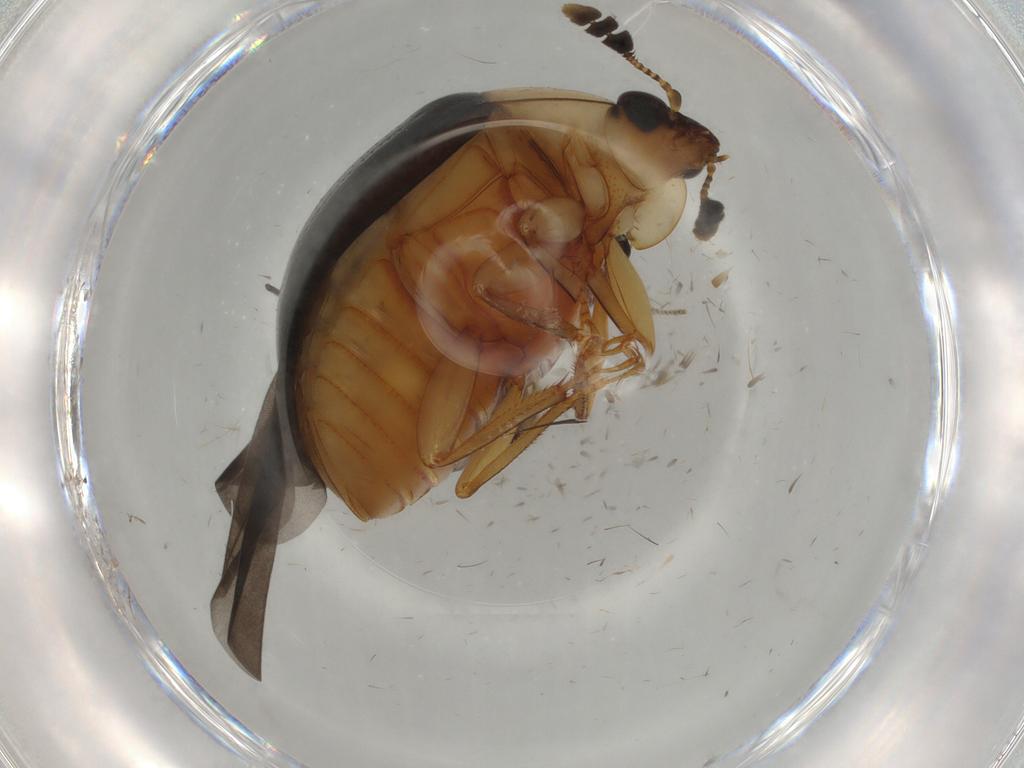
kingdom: Animalia
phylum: Arthropoda
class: Insecta
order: Coleoptera
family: Nitidulidae
